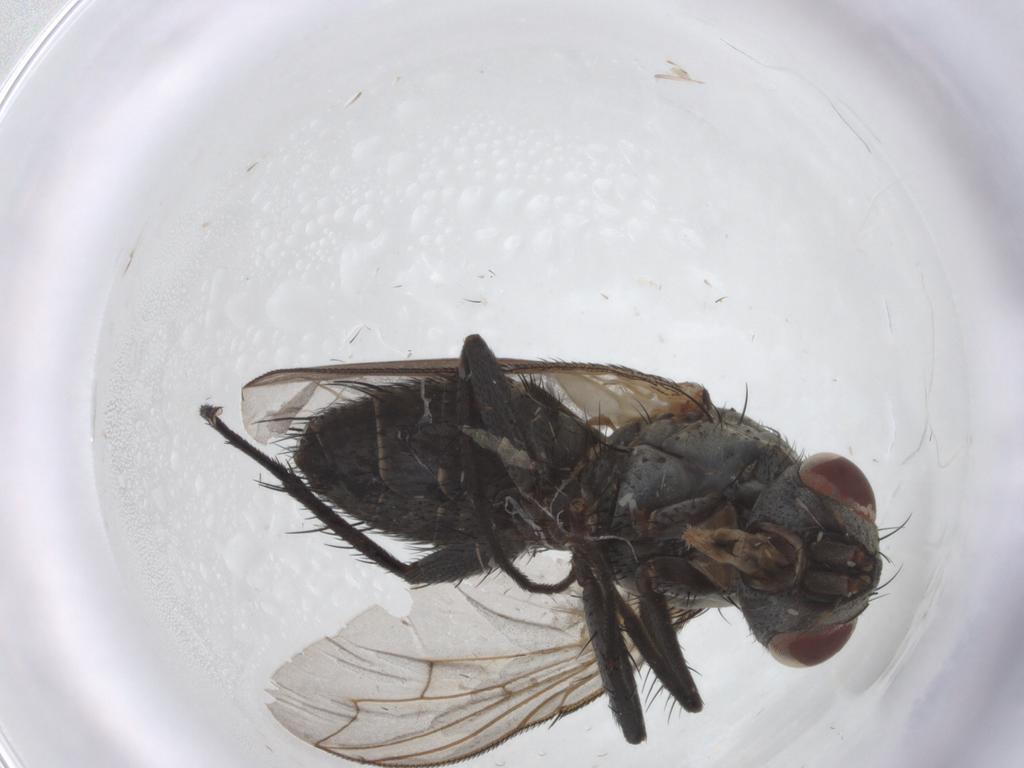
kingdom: Animalia
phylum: Arthropoda
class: Insecta
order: Diptera
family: Sarcophagidae
